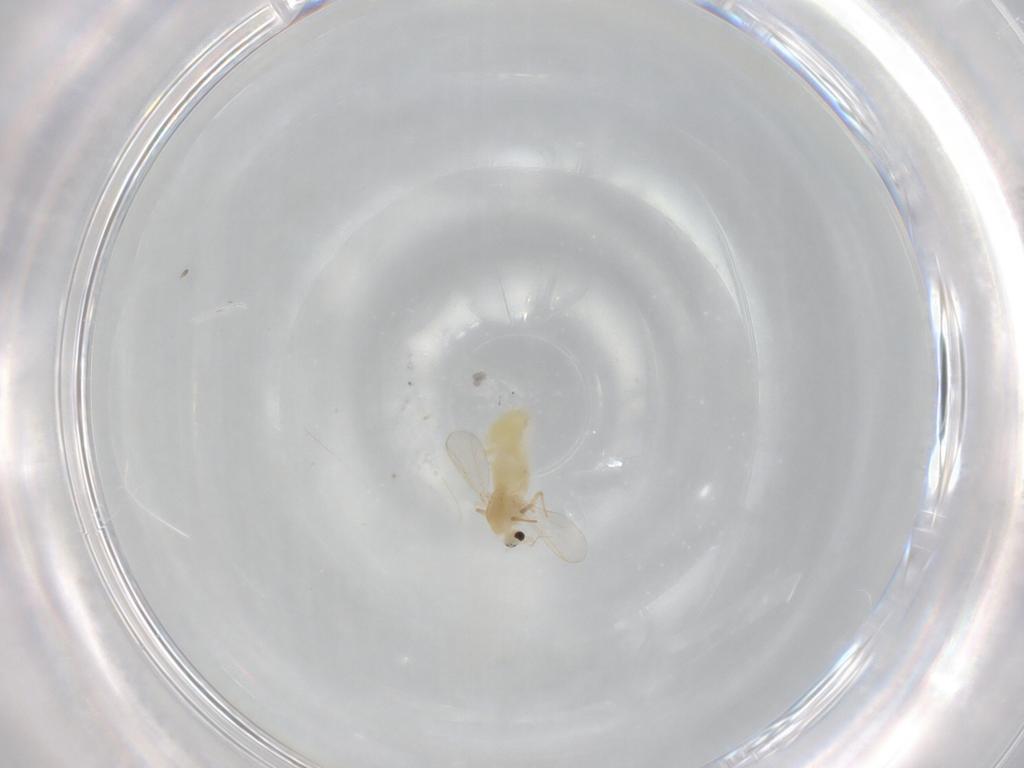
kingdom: Animalia
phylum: Arthropoda
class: Insecta
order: Diptera
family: Chironomidae
